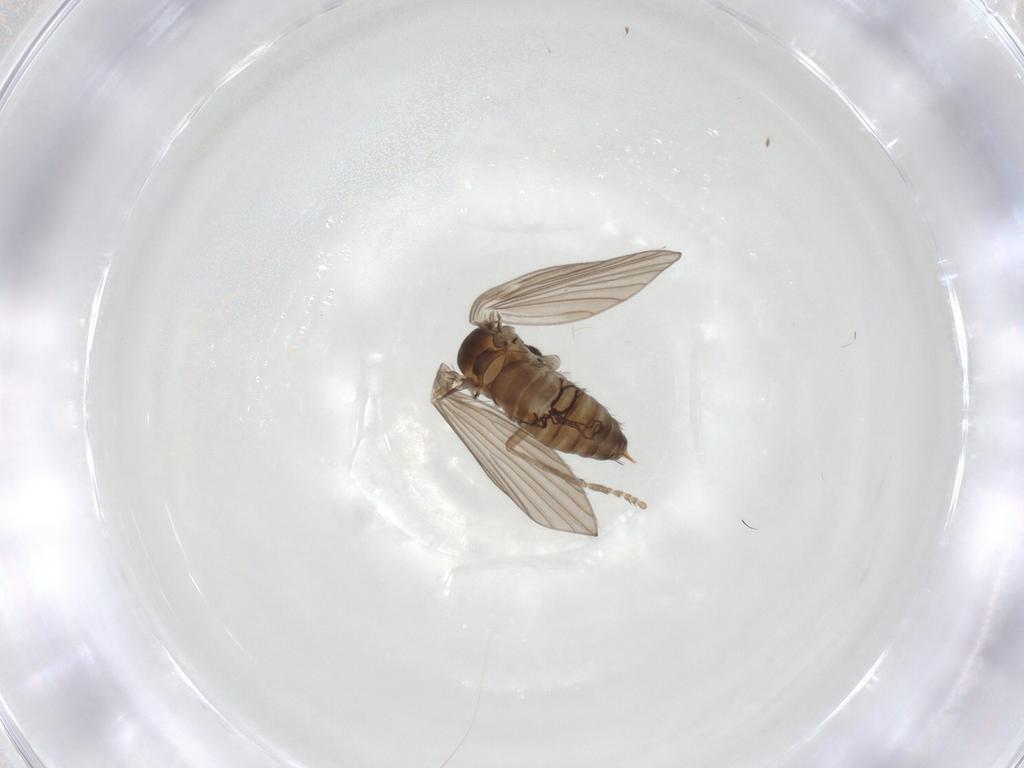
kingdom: Animalia
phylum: Arthropoda
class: Insecta
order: Diptera
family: Psychodidae
